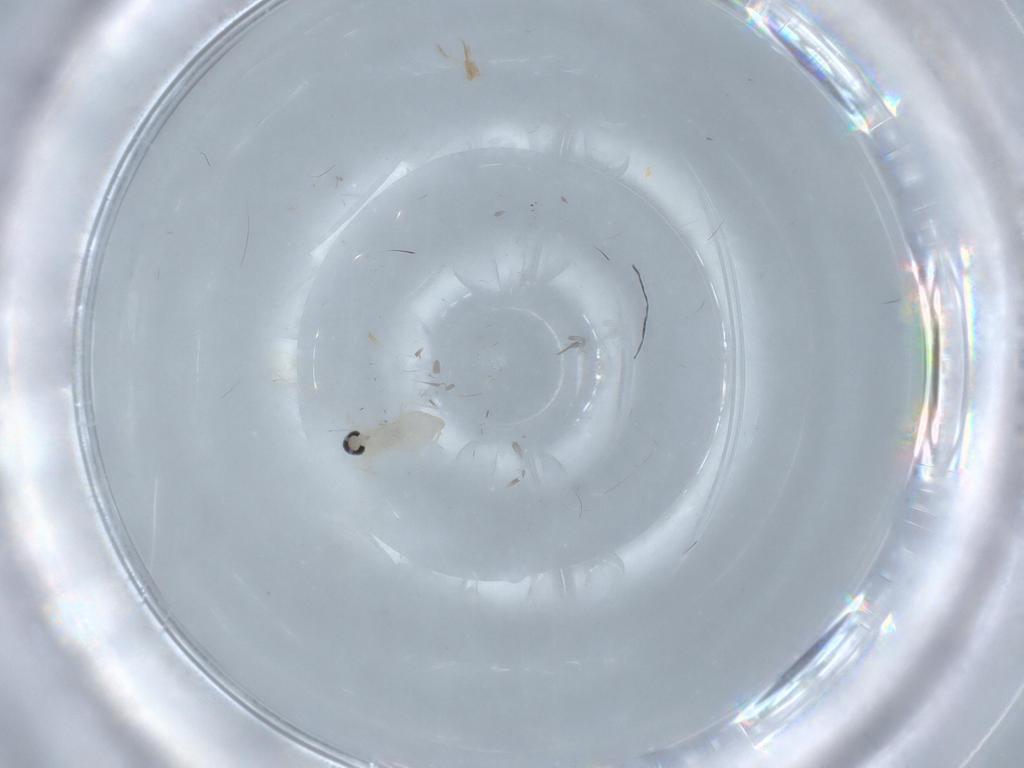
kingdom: Animalia
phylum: Arthropoda
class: Insecta
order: Diptera
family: Cecidomyiidae
